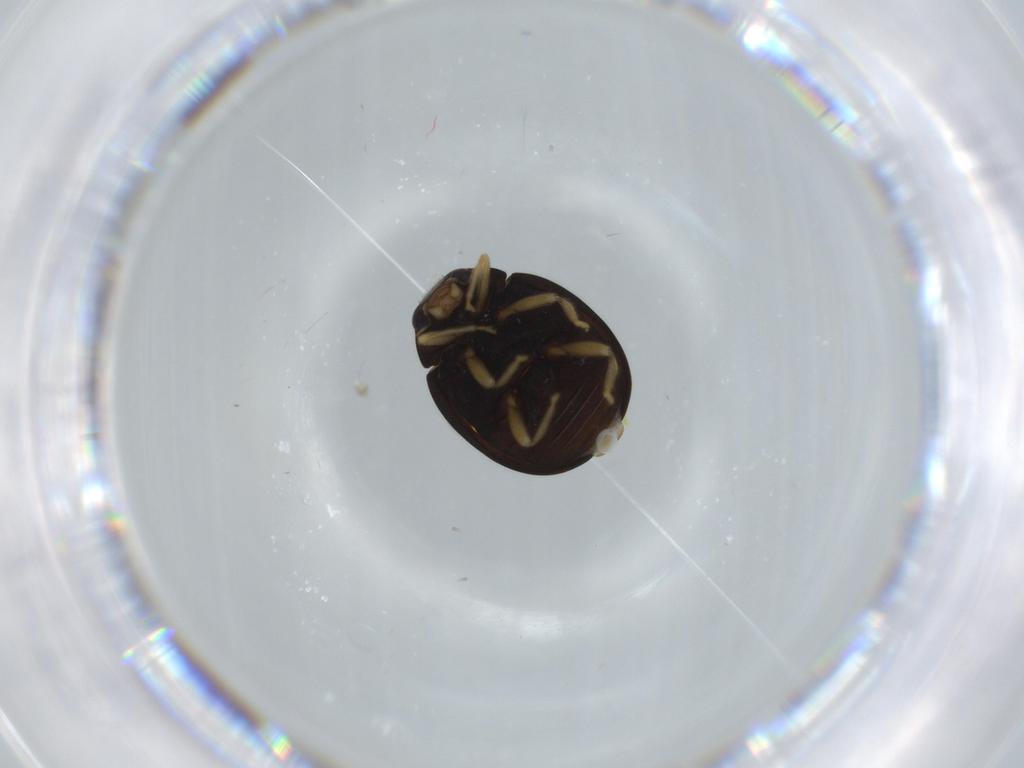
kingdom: Animalia
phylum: Arthropoda
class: Insecta
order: Coleoptera
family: Coccinellidae
